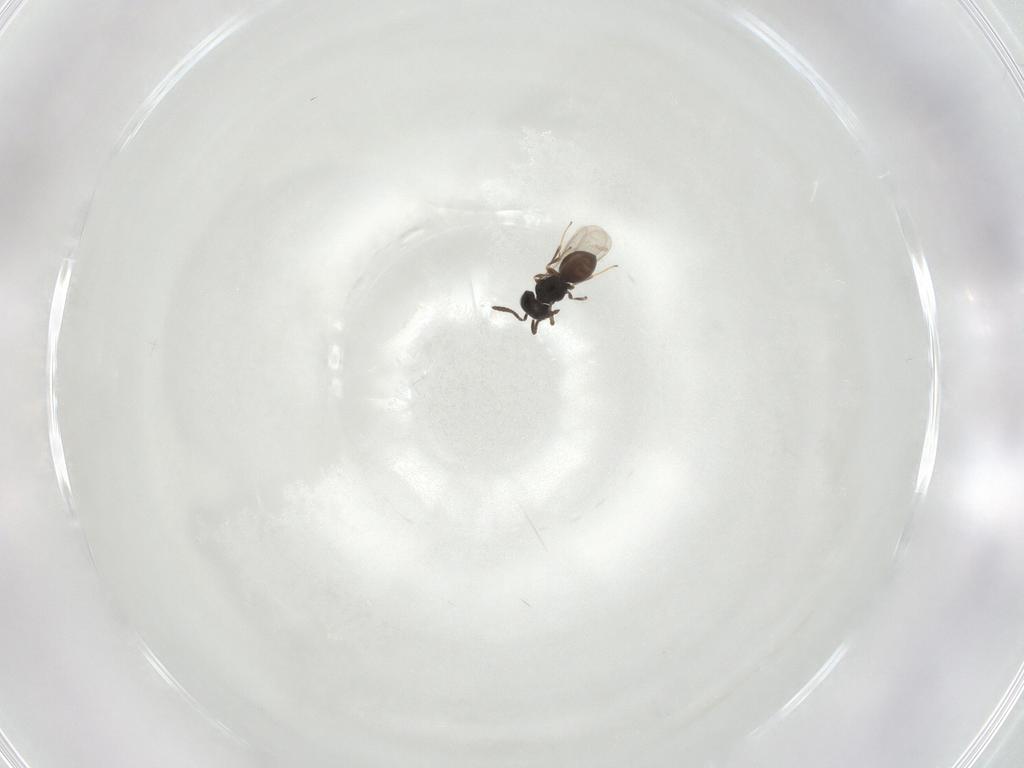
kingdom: Animalia
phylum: Arthropoda
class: Insecta
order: Hymenoptera
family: Scelionidae
